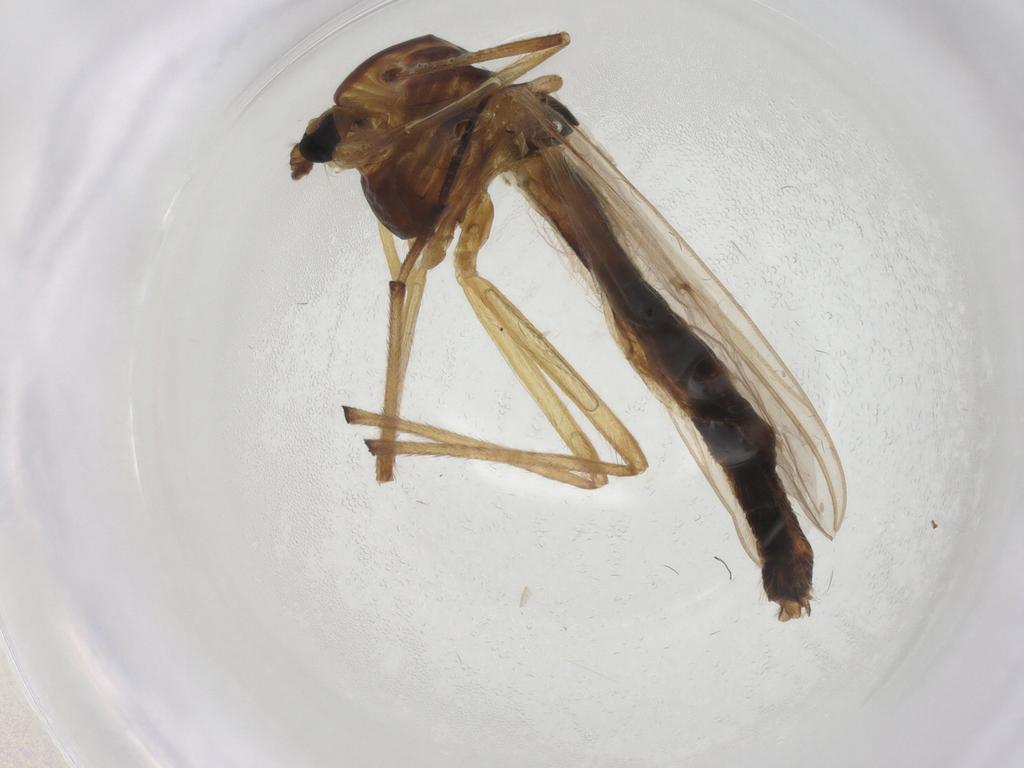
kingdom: Animalia
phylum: Arthropoda
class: Insecta
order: Diptera
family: Chironomidae
